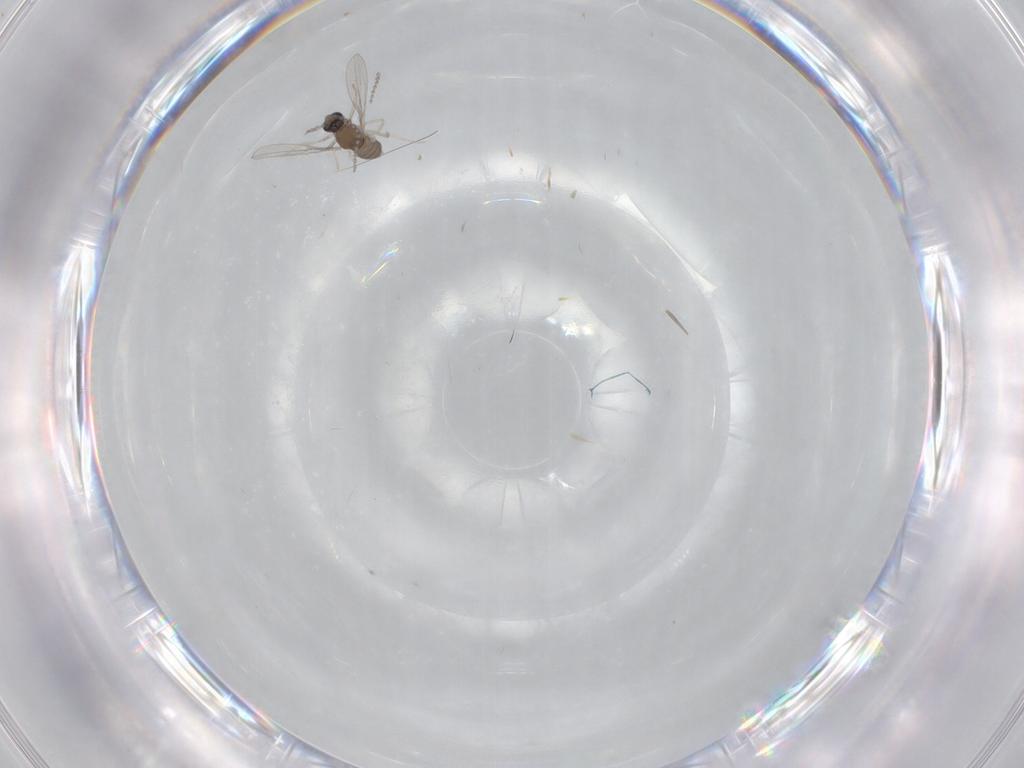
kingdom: Animalia
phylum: Arthropoda
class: Insecta
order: Diptera
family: Cecidomyiidae
